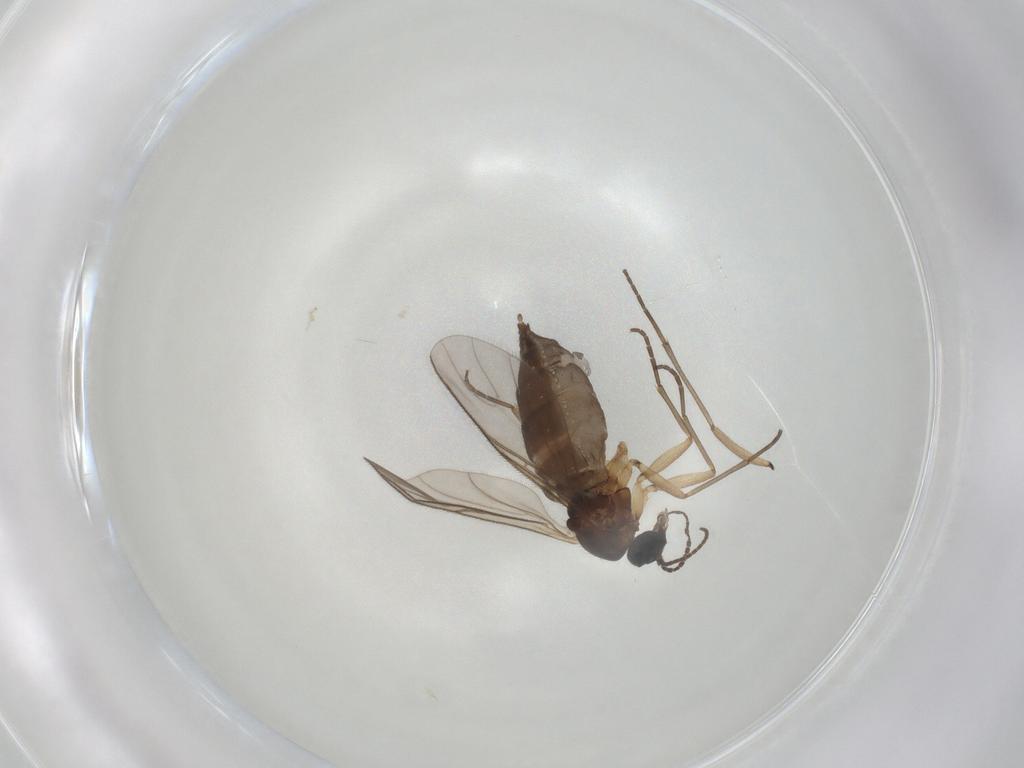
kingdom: Animalia
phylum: Arthropoda
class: Insecta
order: Diptera
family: Sciaridae
